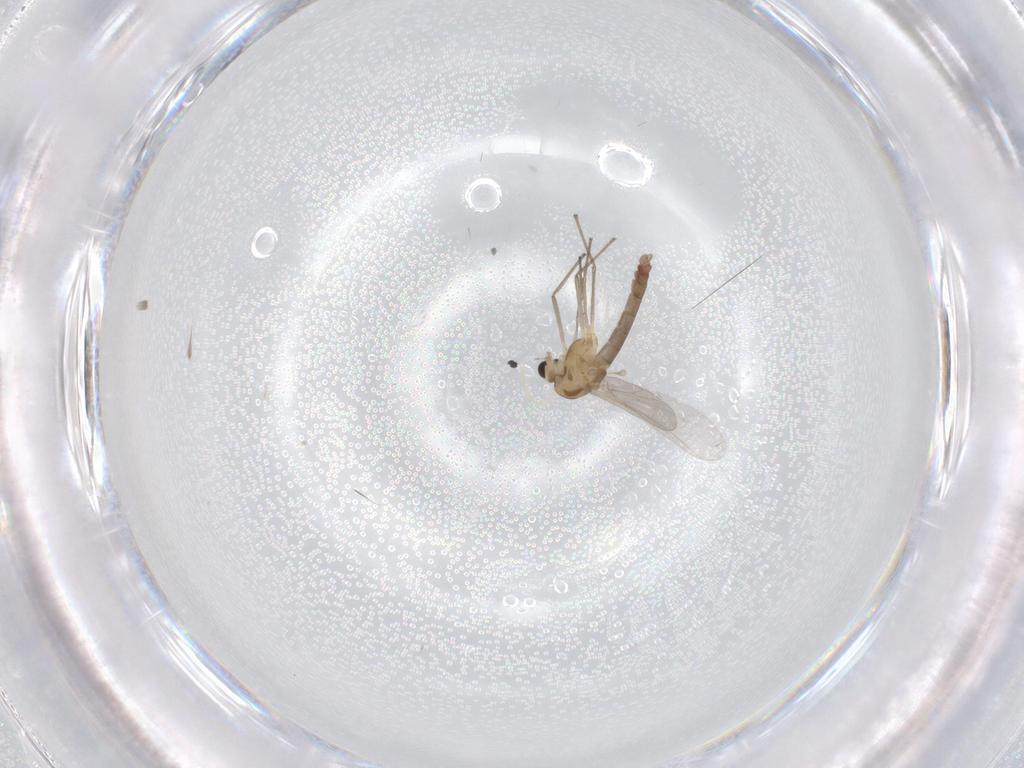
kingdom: Animalia
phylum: Arthropoda
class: Insecta
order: Diptera
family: Chironomidae
